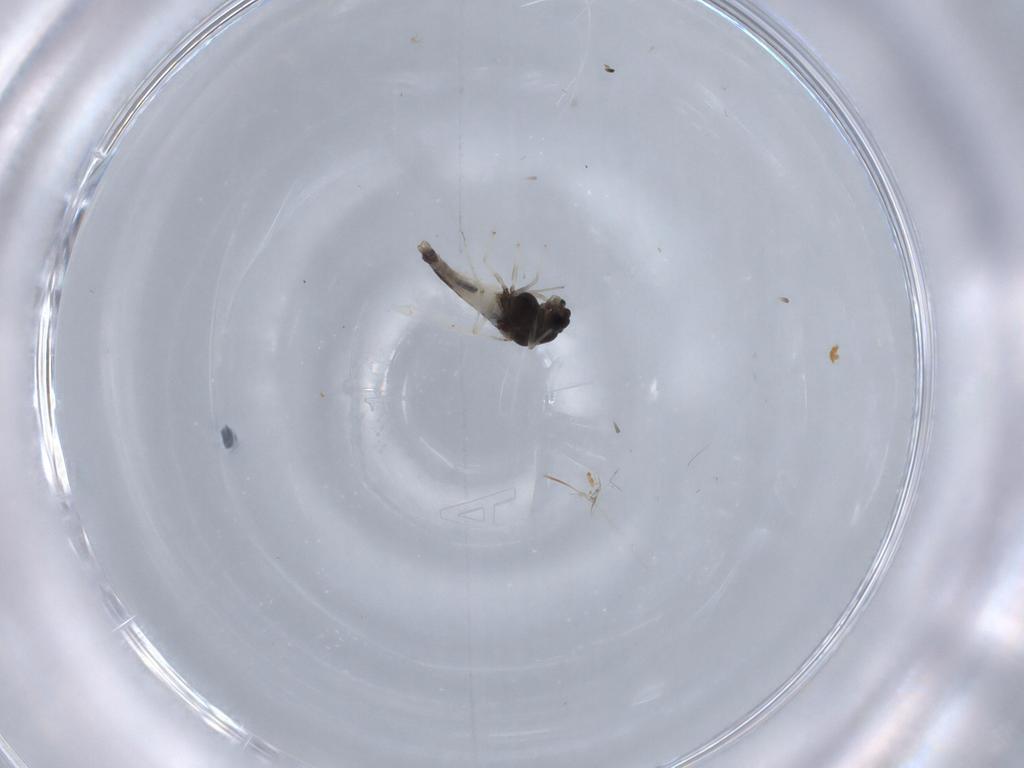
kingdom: Animalia
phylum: Arthropoda
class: Insecta
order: Diptera
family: Chironomidae
